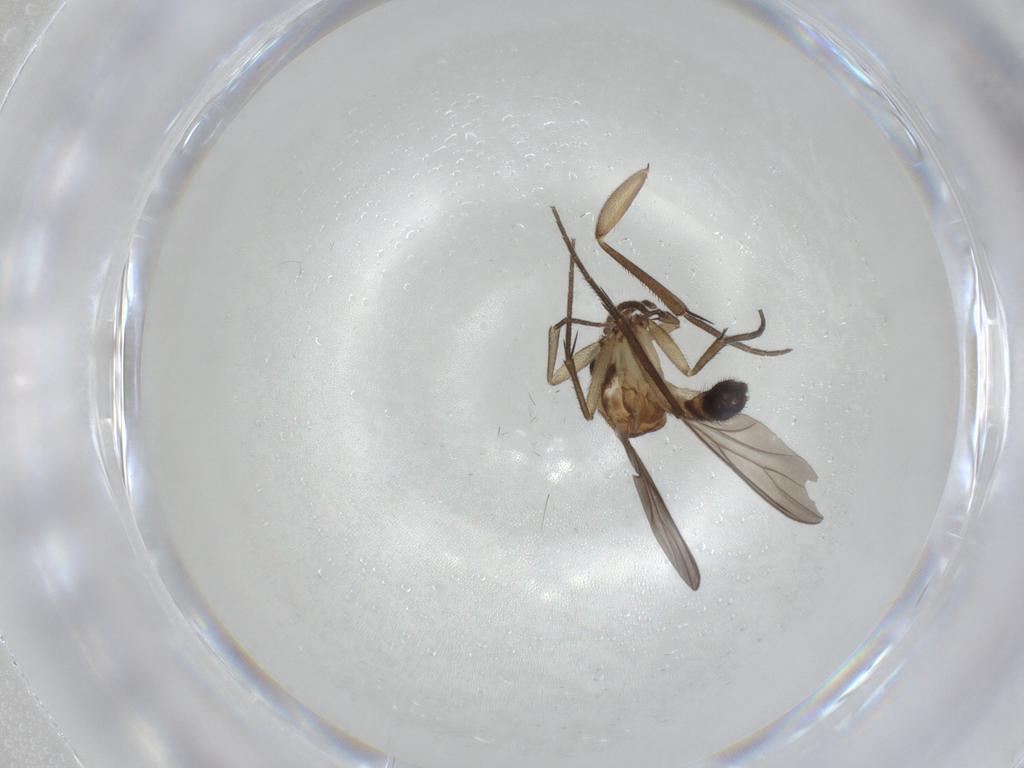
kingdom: Animalia
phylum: Arthropoda
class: Insecta
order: Diptera
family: Mycetophilidae
